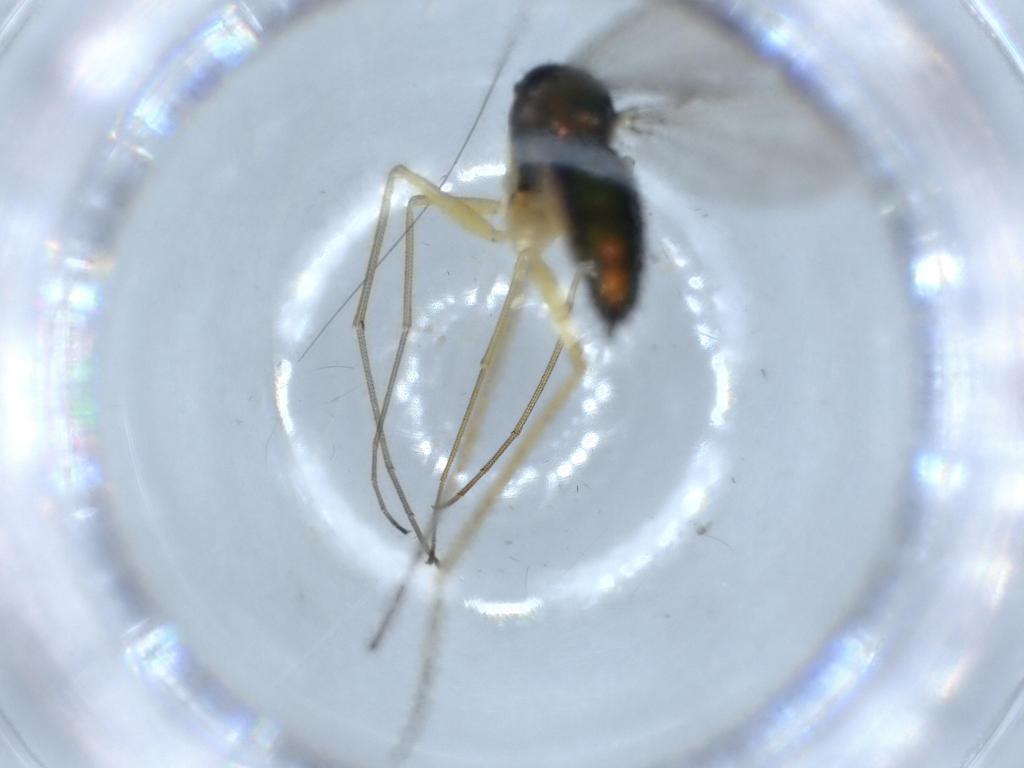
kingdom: Animalia
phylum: Arthropoda
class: Insecta
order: Diptera
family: Dolichopodidae
